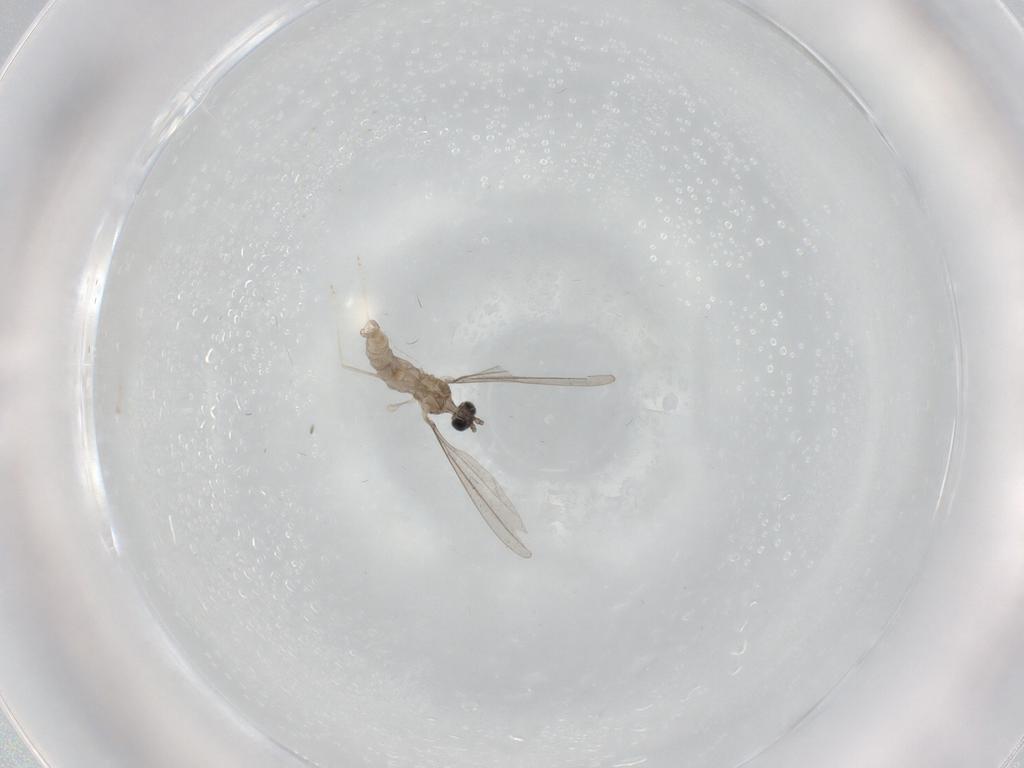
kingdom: Animalia
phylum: Arthropoda
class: Insecta
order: Diptera
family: Cecidomyiidae
